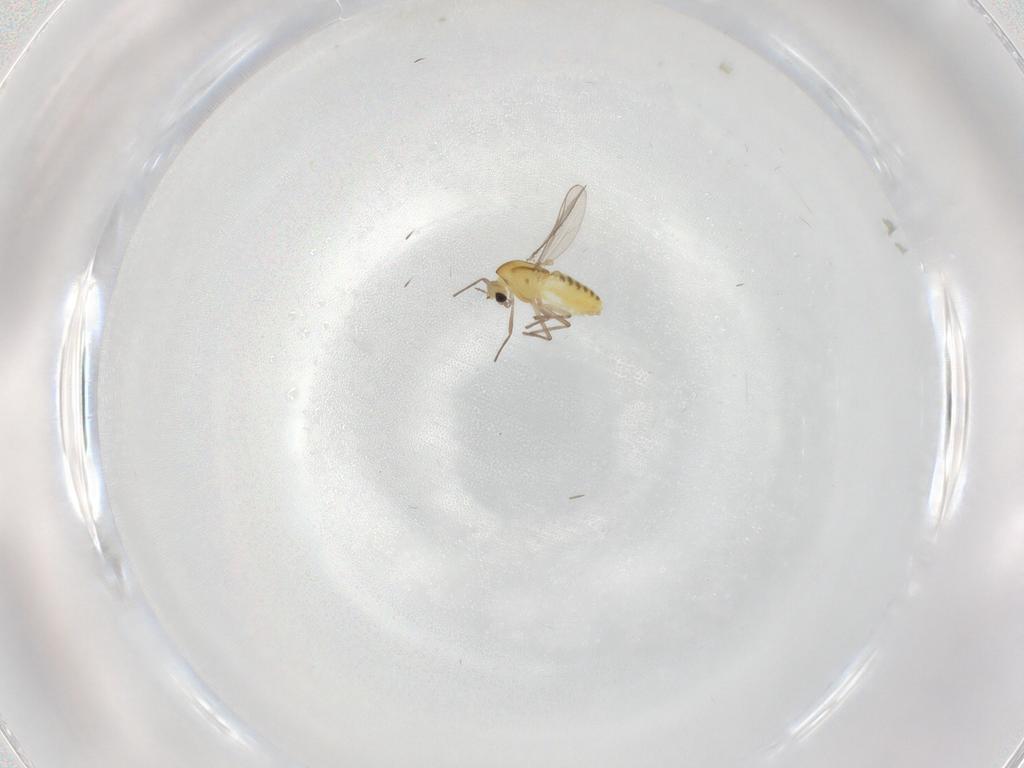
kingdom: Animalia
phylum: Arthropoda
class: Insecta
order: Diptera
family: Chironomidae
